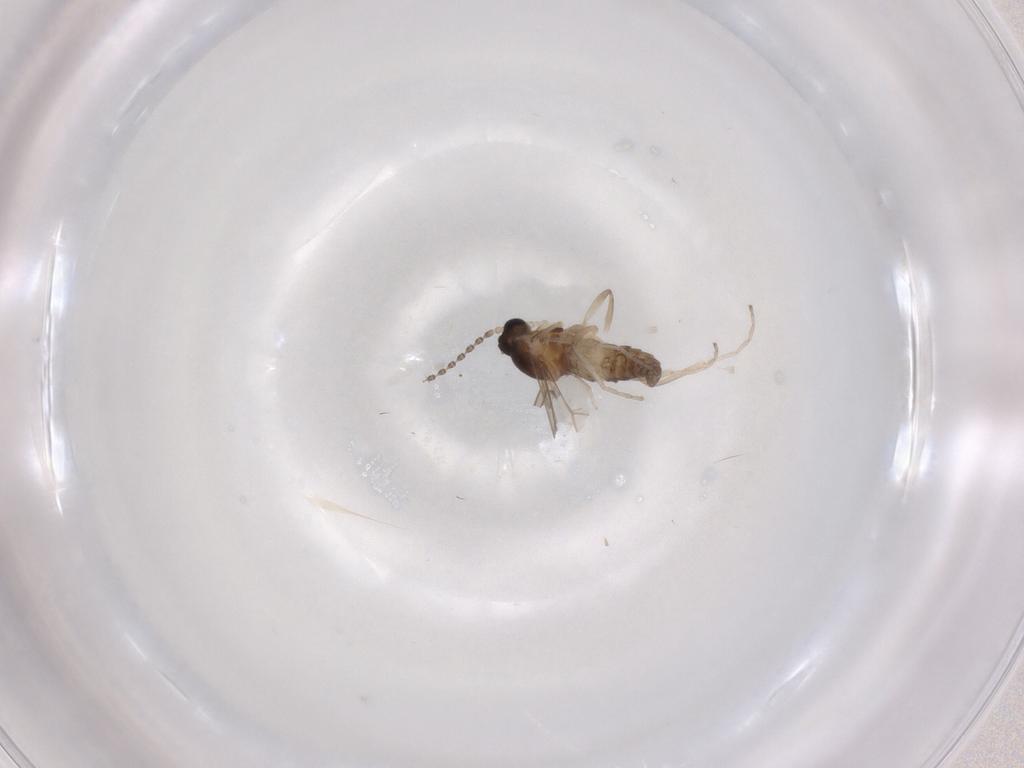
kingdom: Animalia
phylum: Arthropoda
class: Insecta
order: Diptera
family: Cecidomyiidae
